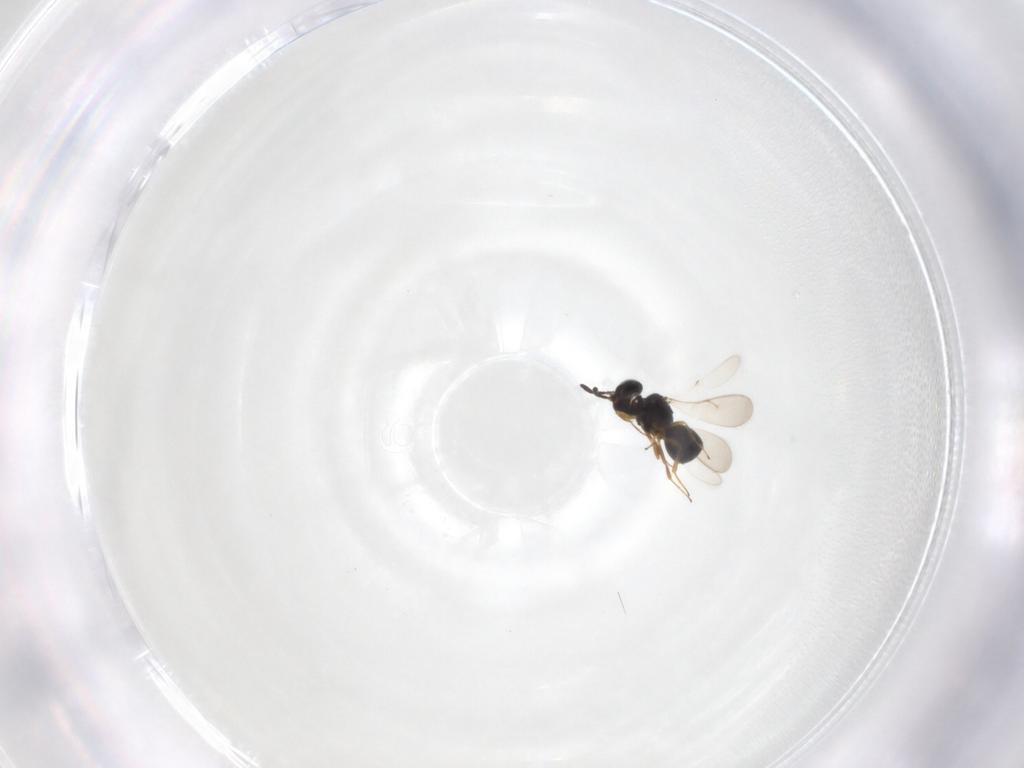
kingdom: Animalia
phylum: Arthropoda
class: Insecta
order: Hymenoptera
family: Scelionidae
